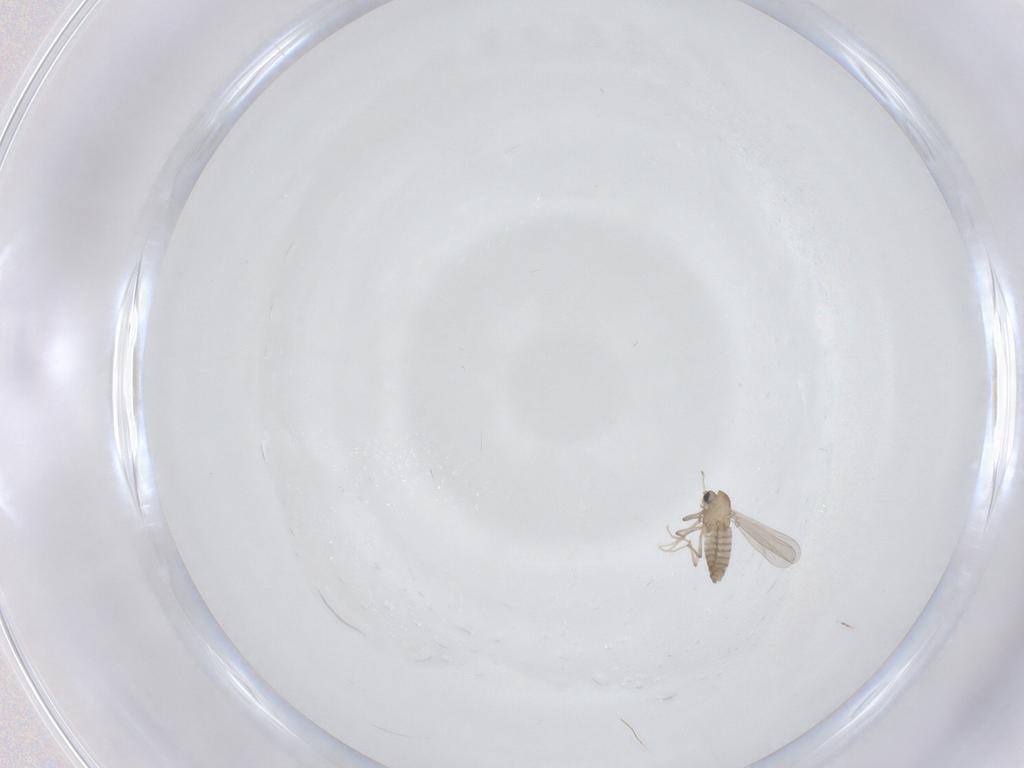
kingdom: Animalia
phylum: Arthropoda
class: Insecta
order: Diptera
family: Chironomidae
